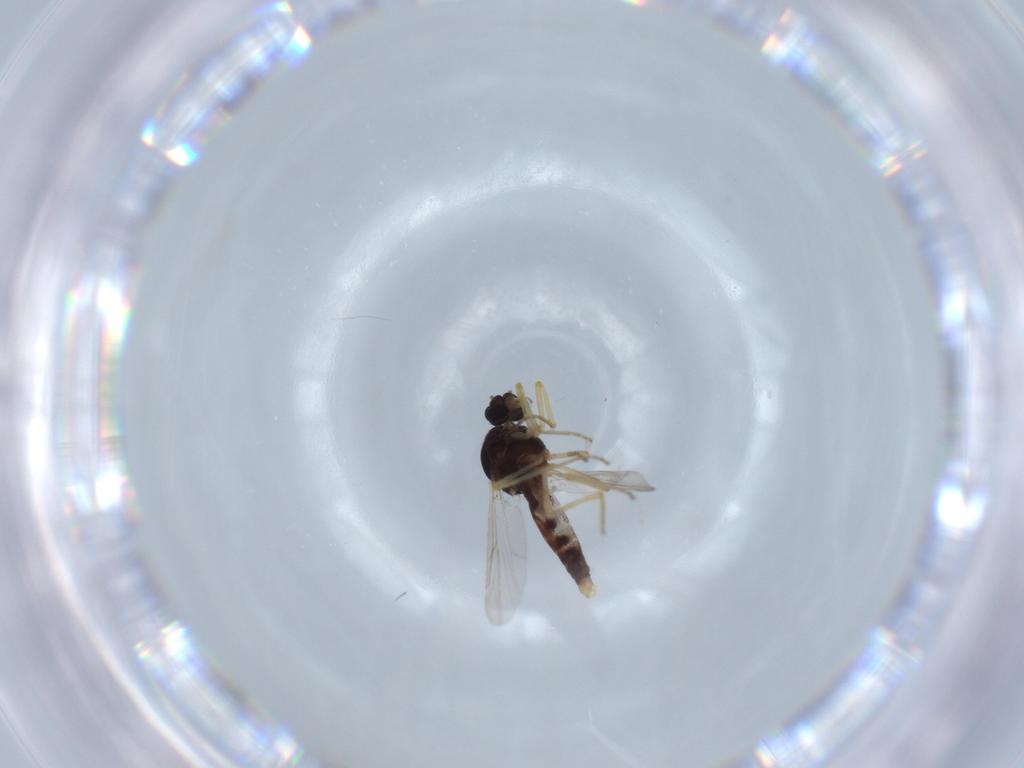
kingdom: Animalia
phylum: Arthropoda
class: Insecta
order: Diptera
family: Ceratopogonidae
